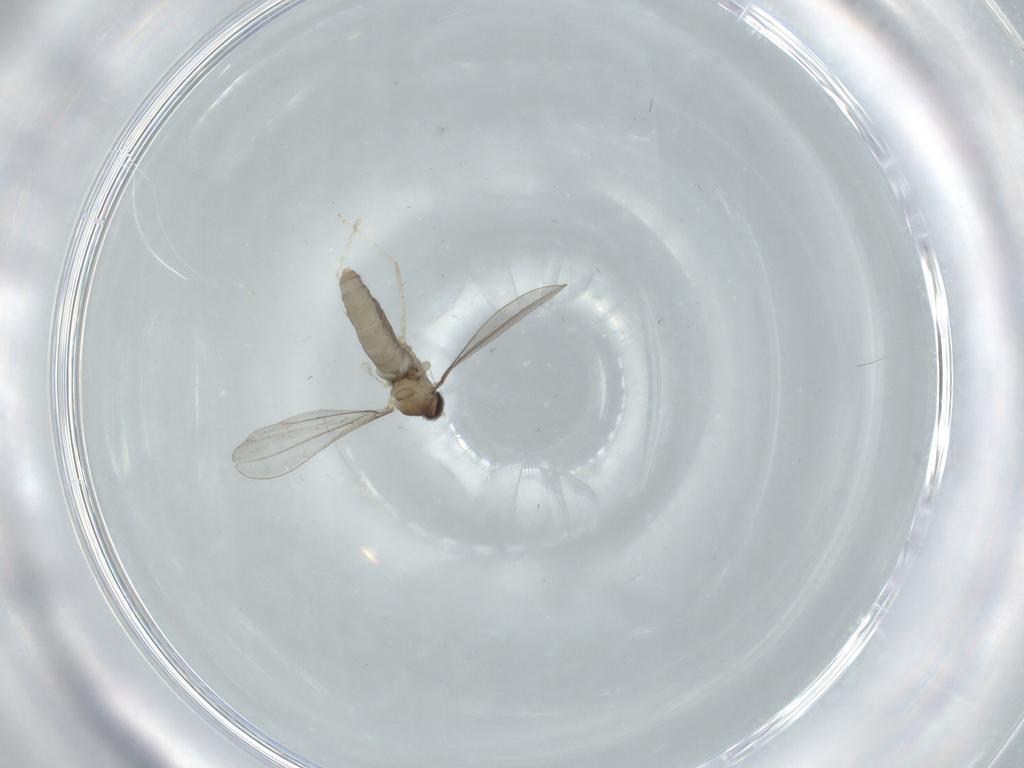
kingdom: Animalia
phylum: Arthropoda
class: Insecta
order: Diptera
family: Cecidomyiidae
